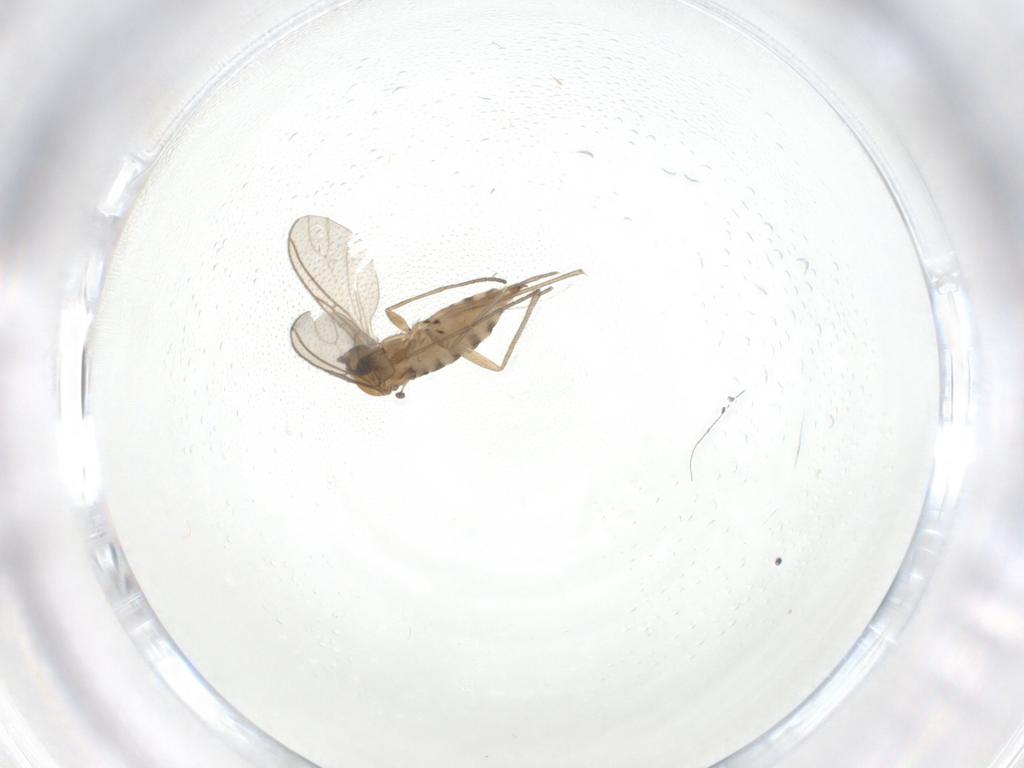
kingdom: Animalia
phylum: Arthropoda
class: Insecta
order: Diptera
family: Sciaridae
